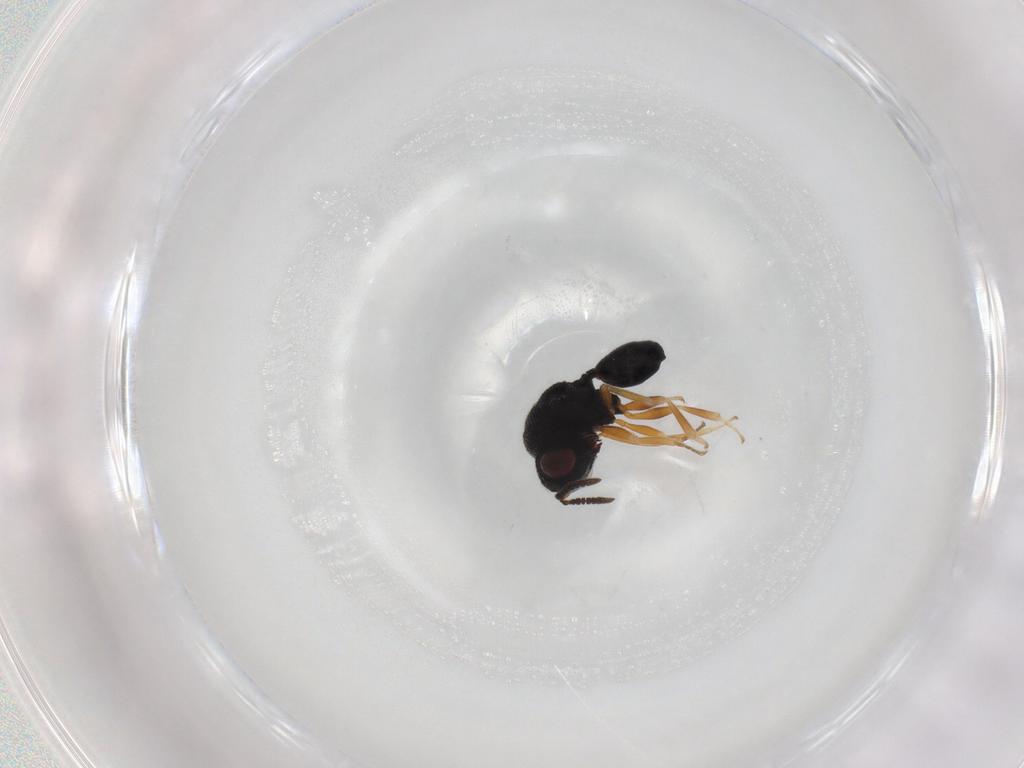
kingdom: Animalia
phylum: Arthropoda
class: Insecta
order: Hymenoptera
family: Eurytomidae
